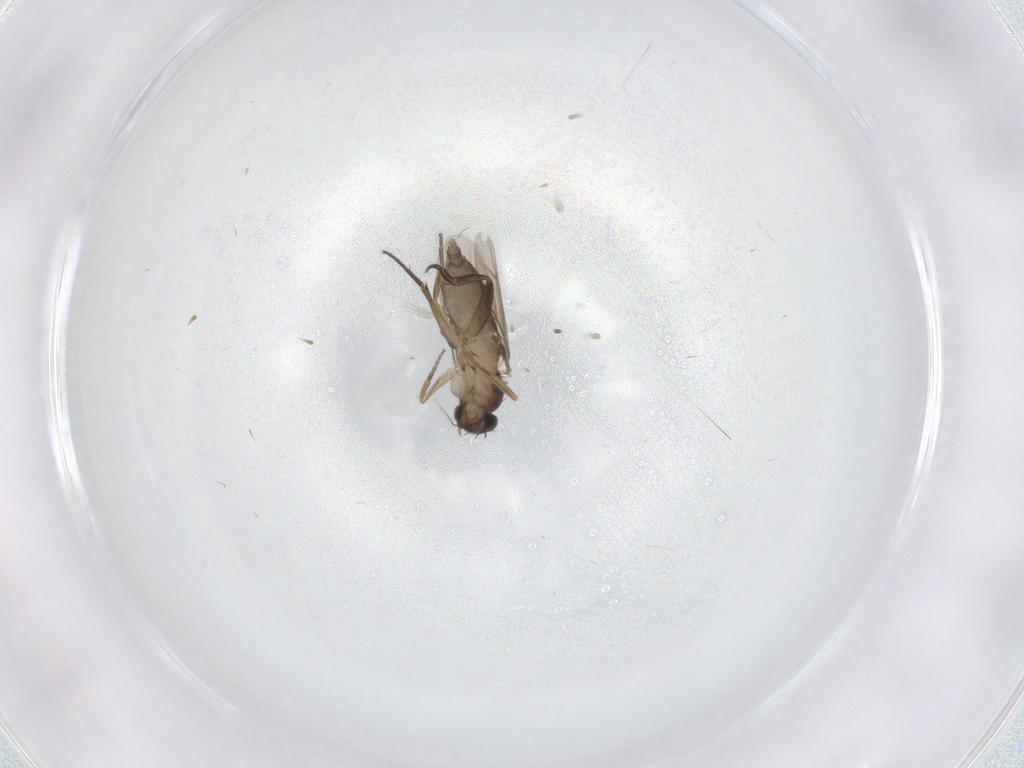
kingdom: Animalia
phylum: Arthropoda
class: Insecta
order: Diptera
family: Phoridae
